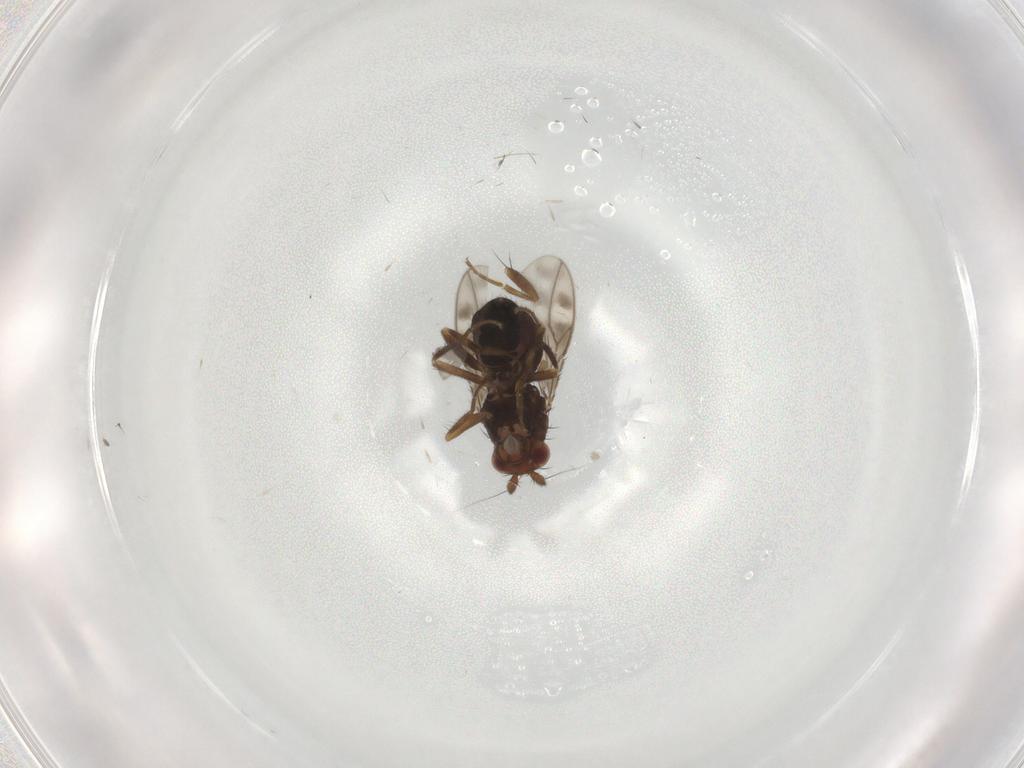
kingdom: Animalia
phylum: Arthropoda
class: Insecta
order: Diptera
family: Sphaeroceridae
